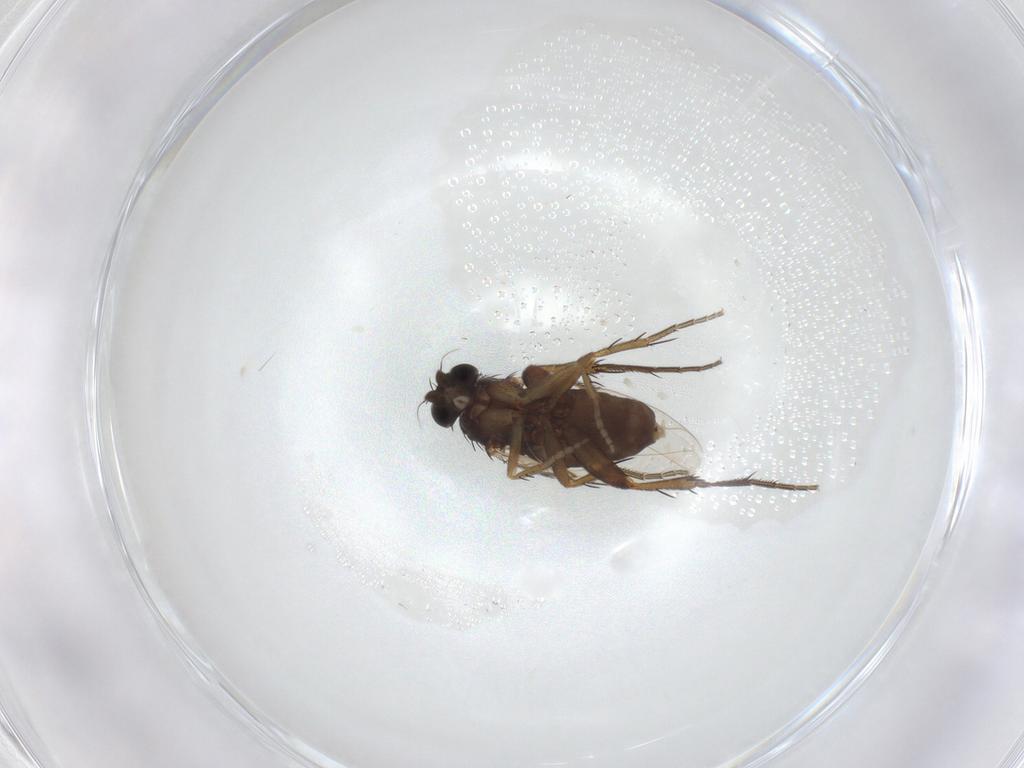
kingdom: Animalia
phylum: Arthropoda
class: Insecta
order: Diptera
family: Phoridae
